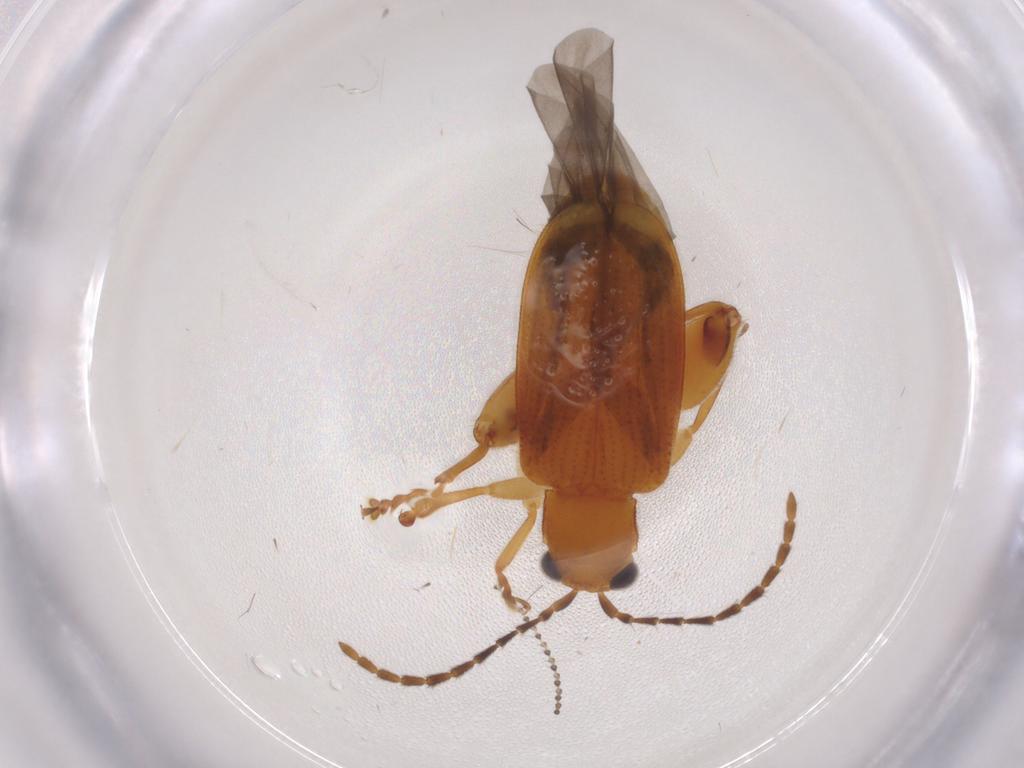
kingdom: Animalia
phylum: Arthropoda
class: Insecta
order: Coleoptera
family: Chrysomelidae
